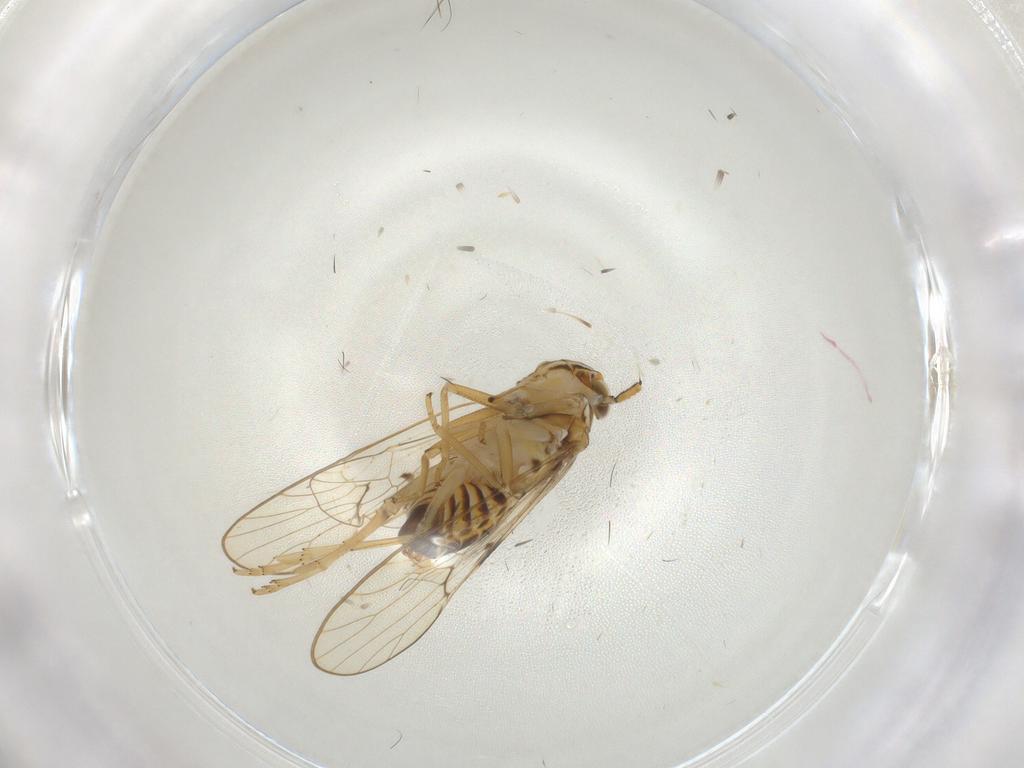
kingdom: Animalia
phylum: Arthropoda
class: Insecta
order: Hemiptera
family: Delphacidae
